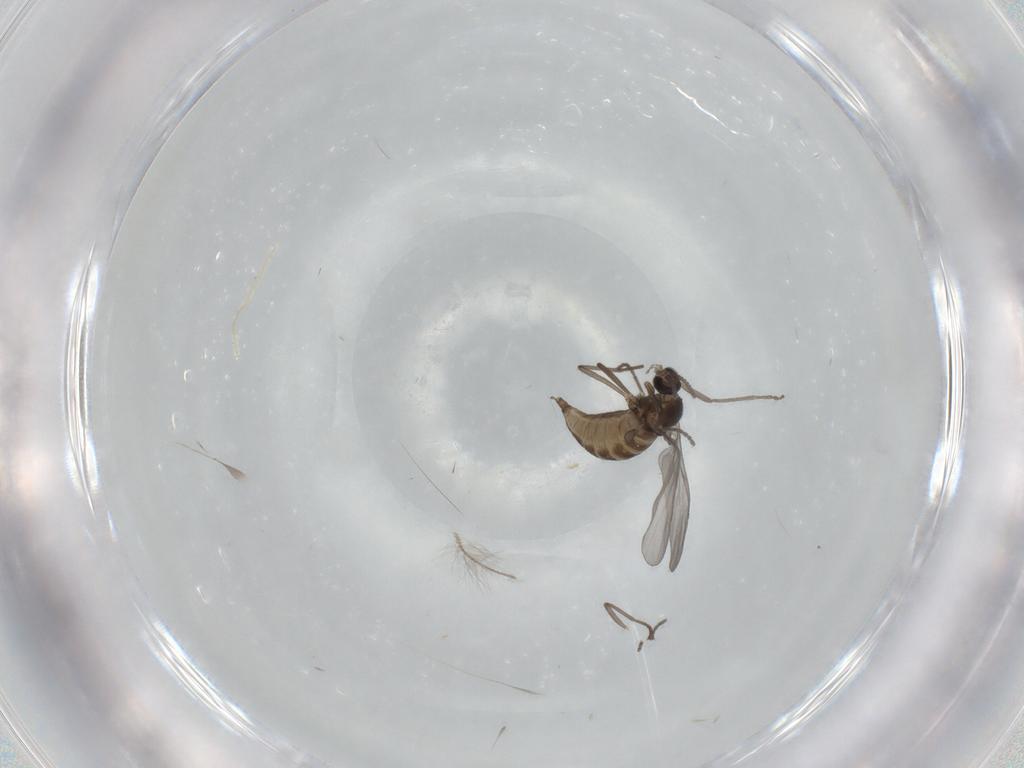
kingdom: Animalia
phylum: Arthropoda
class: Insecta
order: Diptera
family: Cecidomyiidae
